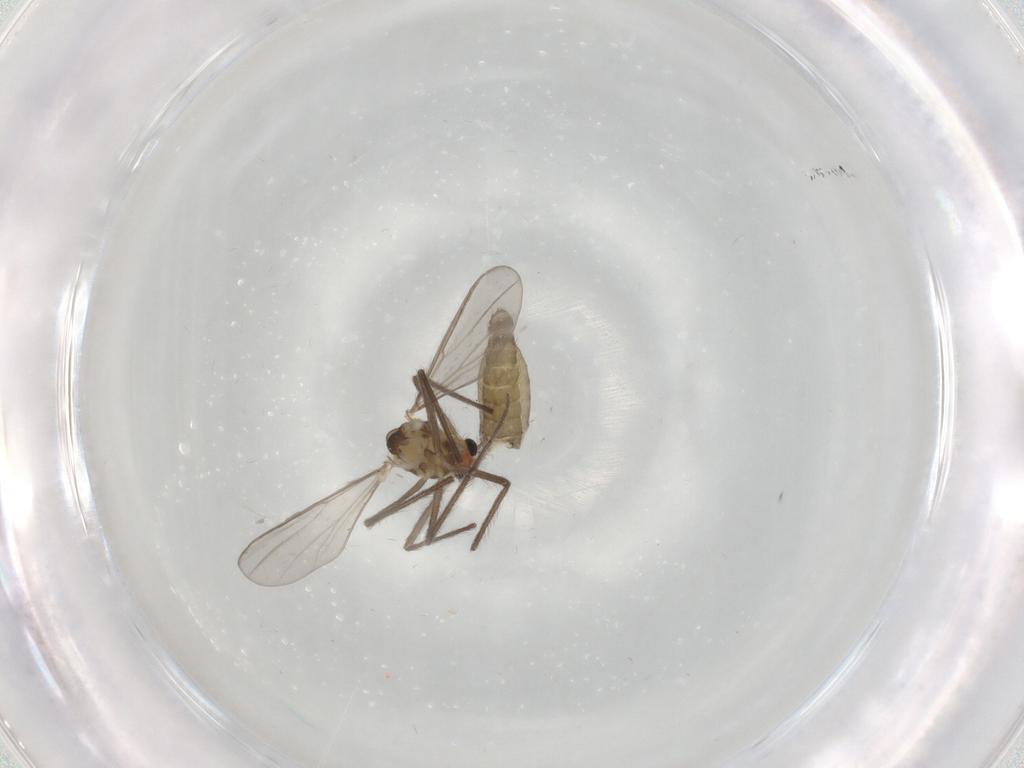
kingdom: Animalia
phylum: Arthropoda
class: Insecta
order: Diptera
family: Chironomidae
